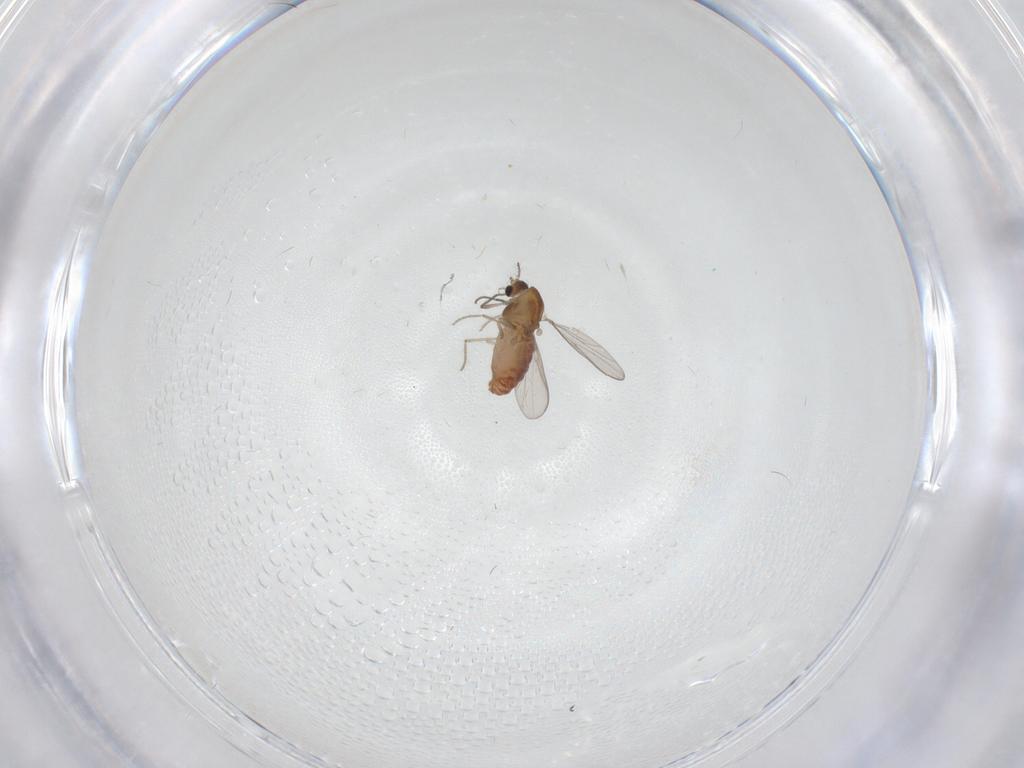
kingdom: Animalia
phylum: Arthropoda
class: Insecta
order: Diptera
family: Chironomidae
